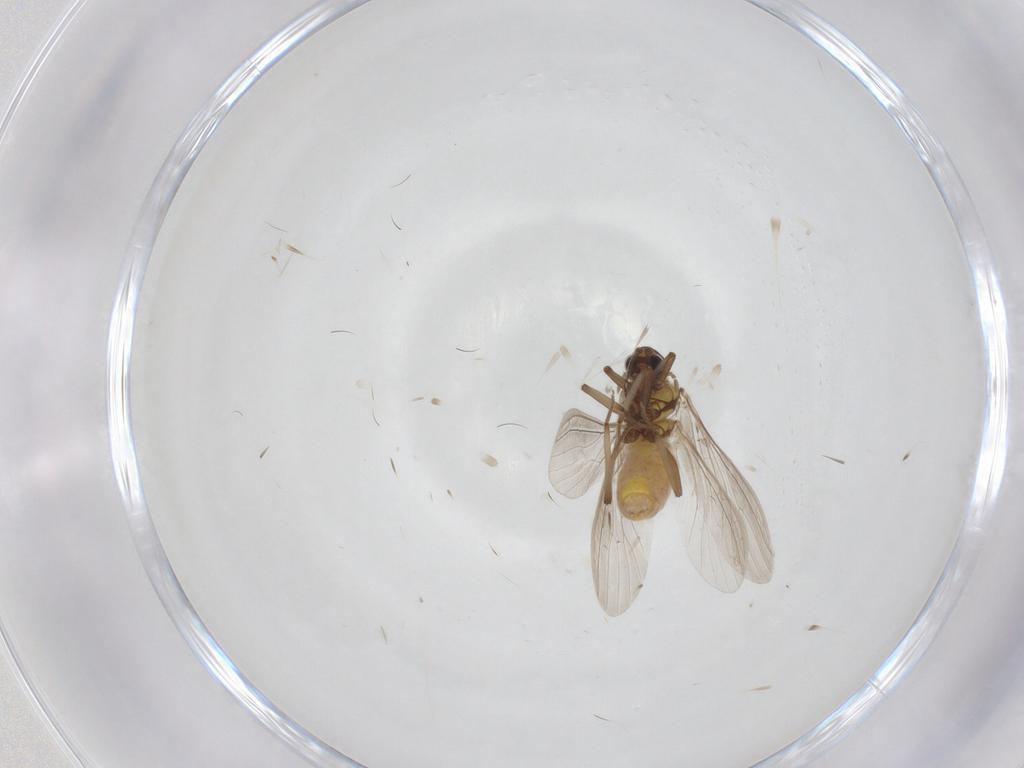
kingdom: Animalia
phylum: Arthropoda
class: Insecta
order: Neuroptera
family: Coniopterygidae
